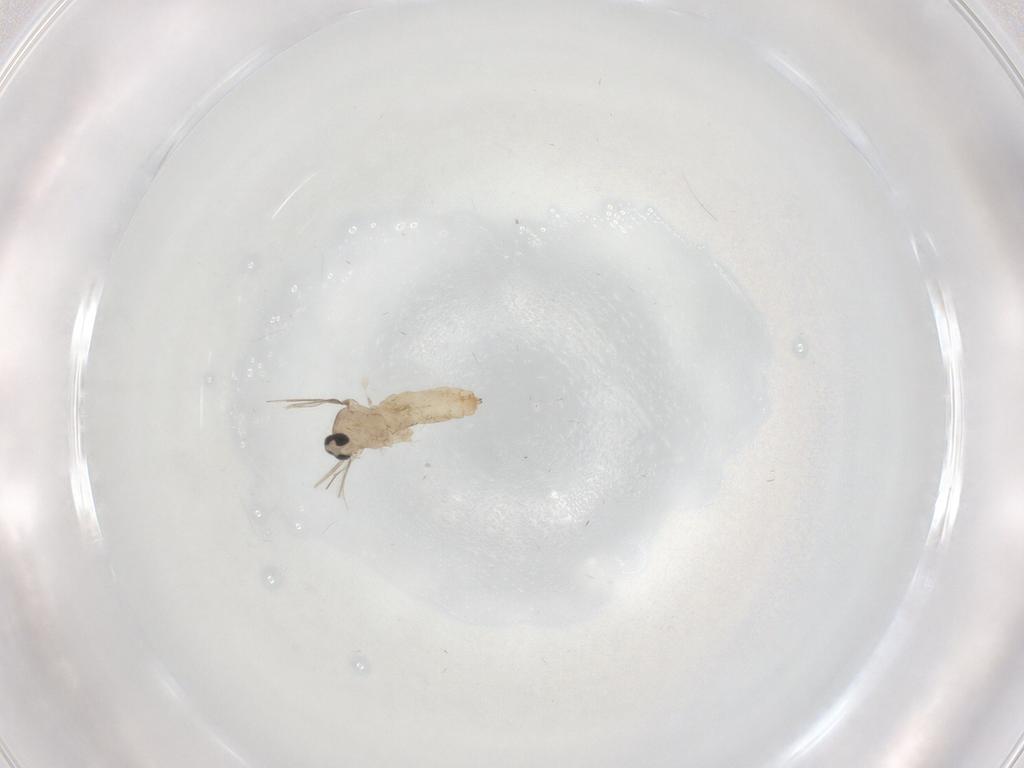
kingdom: Animalia
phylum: Arthropoda
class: Insecta
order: Diptera
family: Cecidomyiidae
